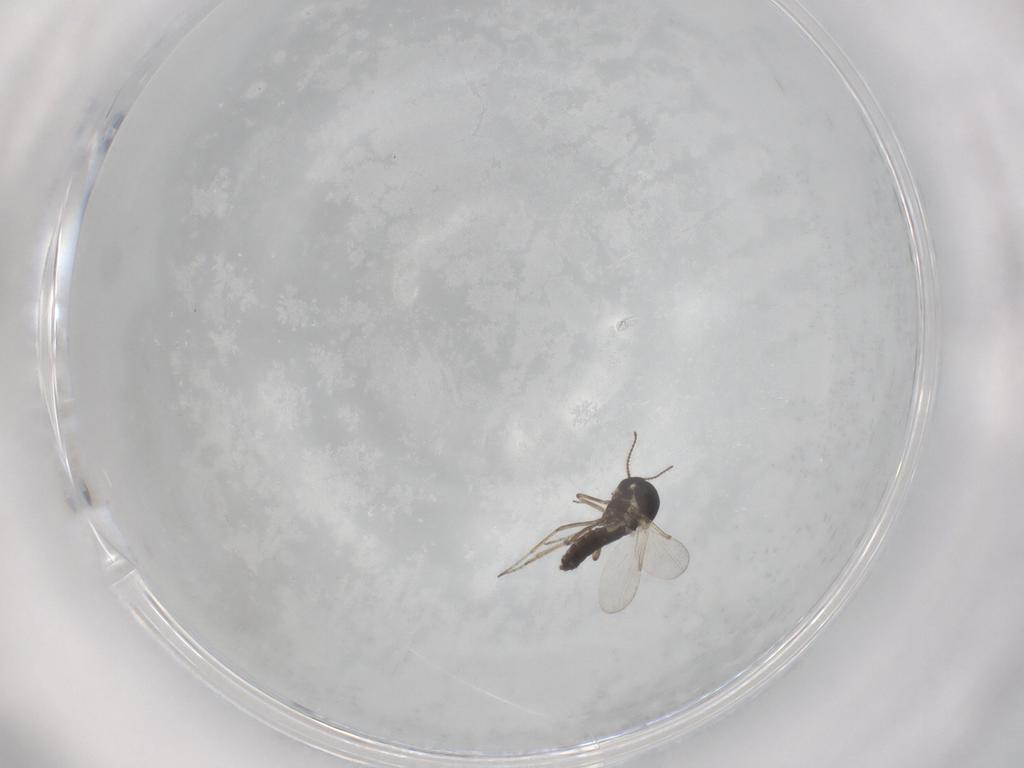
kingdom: Animalia
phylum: Arthropoda
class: Insecta
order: Diptera
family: Ceratopogonidae
